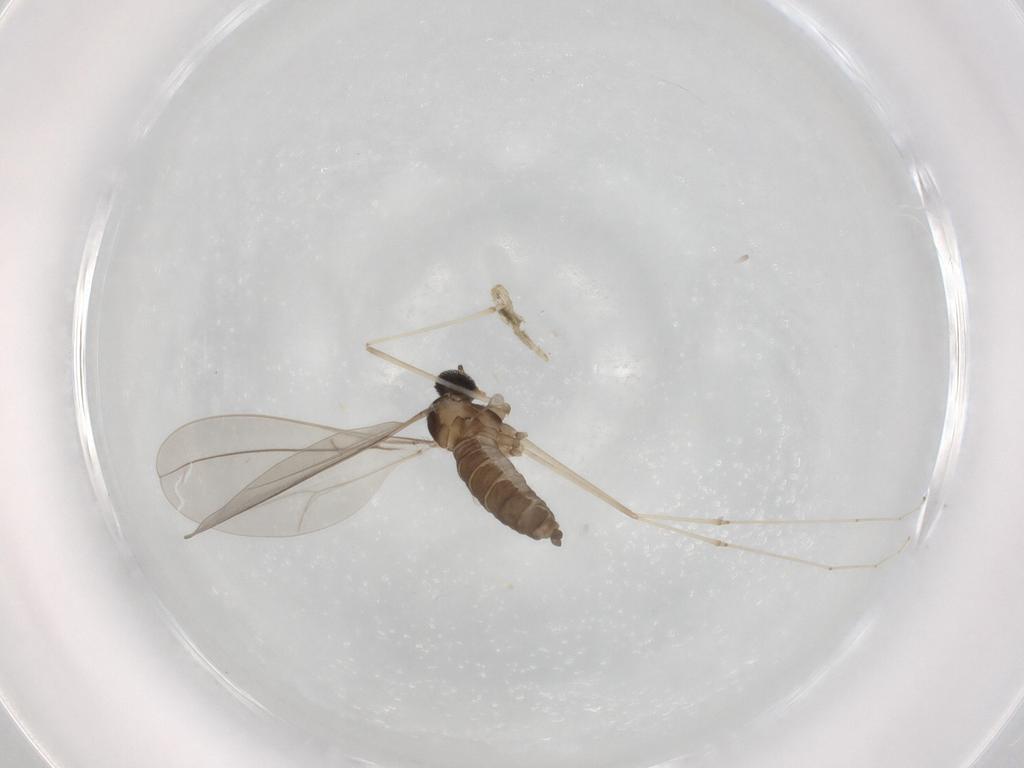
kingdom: Animalia
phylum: Arthropoda
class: Insecta
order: Diptera
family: Cecidomyiidae
